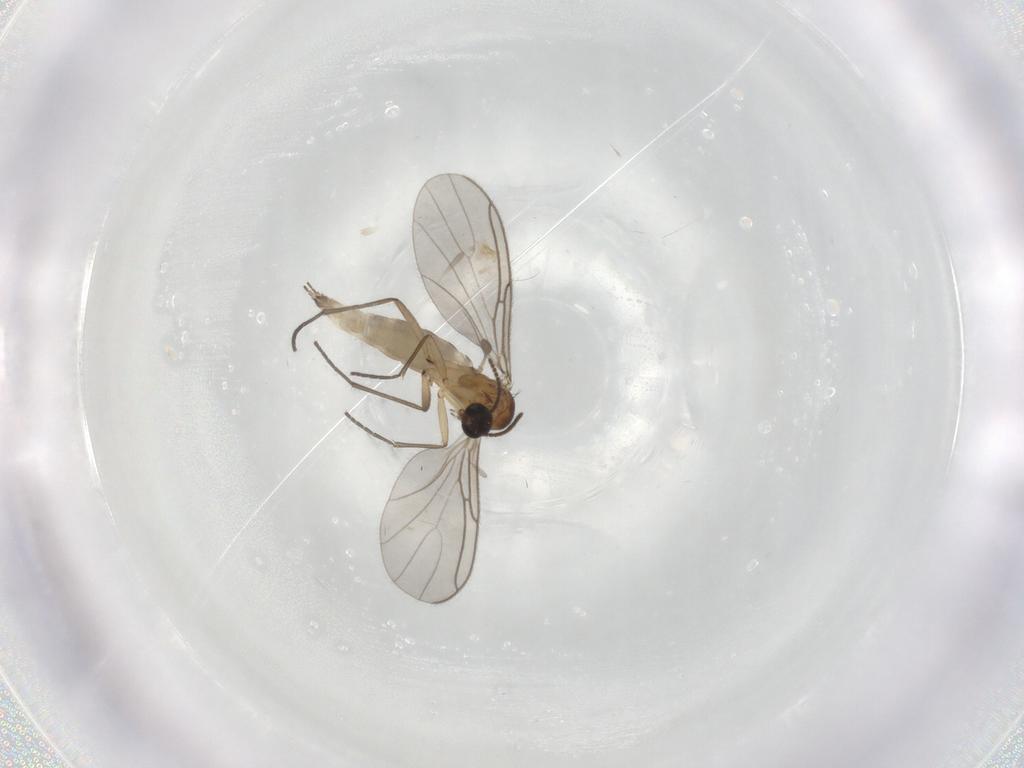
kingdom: Animalia
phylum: Arthropoda
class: Insecta
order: Diptera
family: Sciaridae
